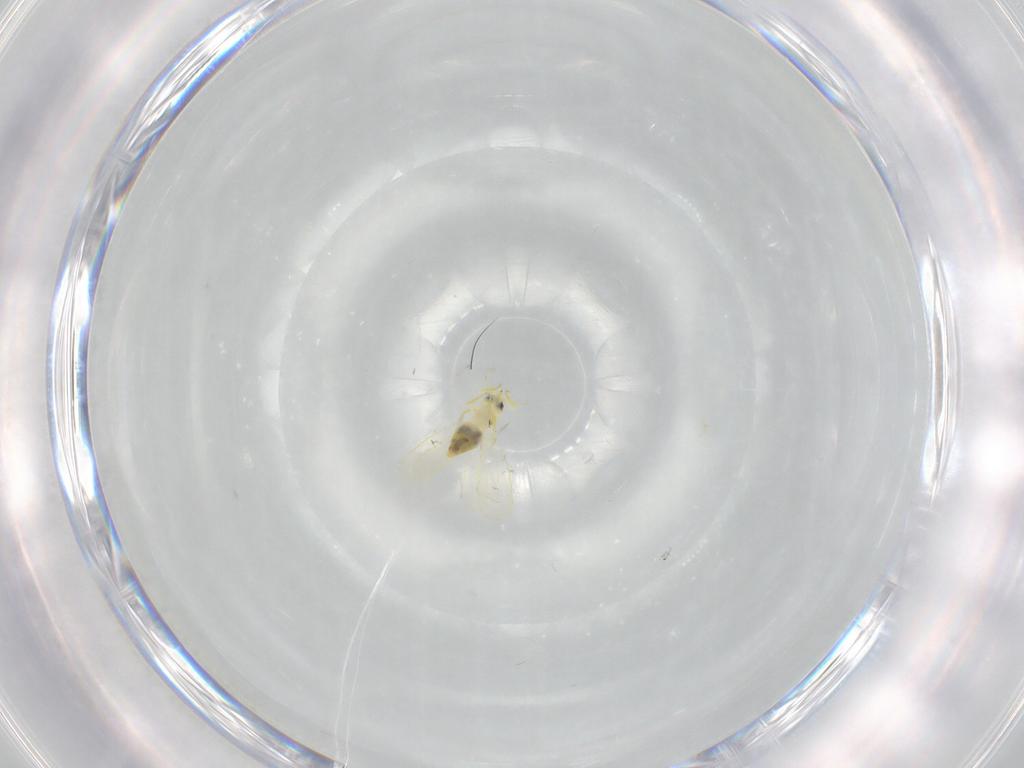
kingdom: Animalia
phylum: Arthropoda
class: Insecta
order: Hemiptera
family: Aleyrodidae
